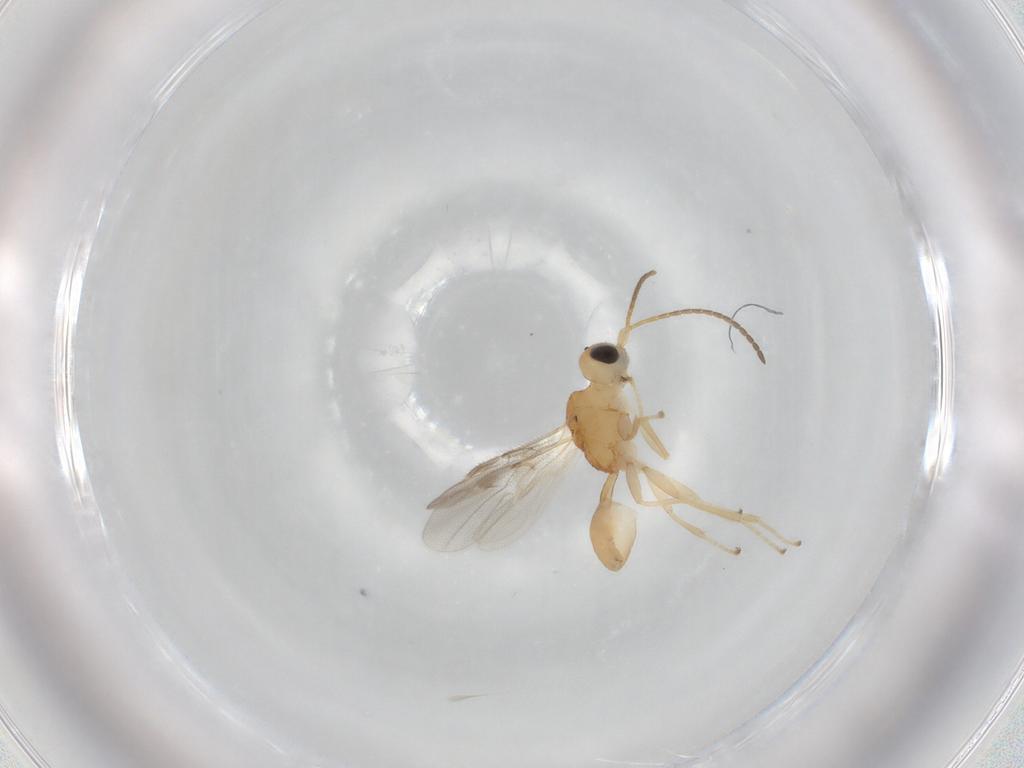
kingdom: Animalia
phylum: Arthropoda
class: Insecta
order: Hymenoptera
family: Braconidae
